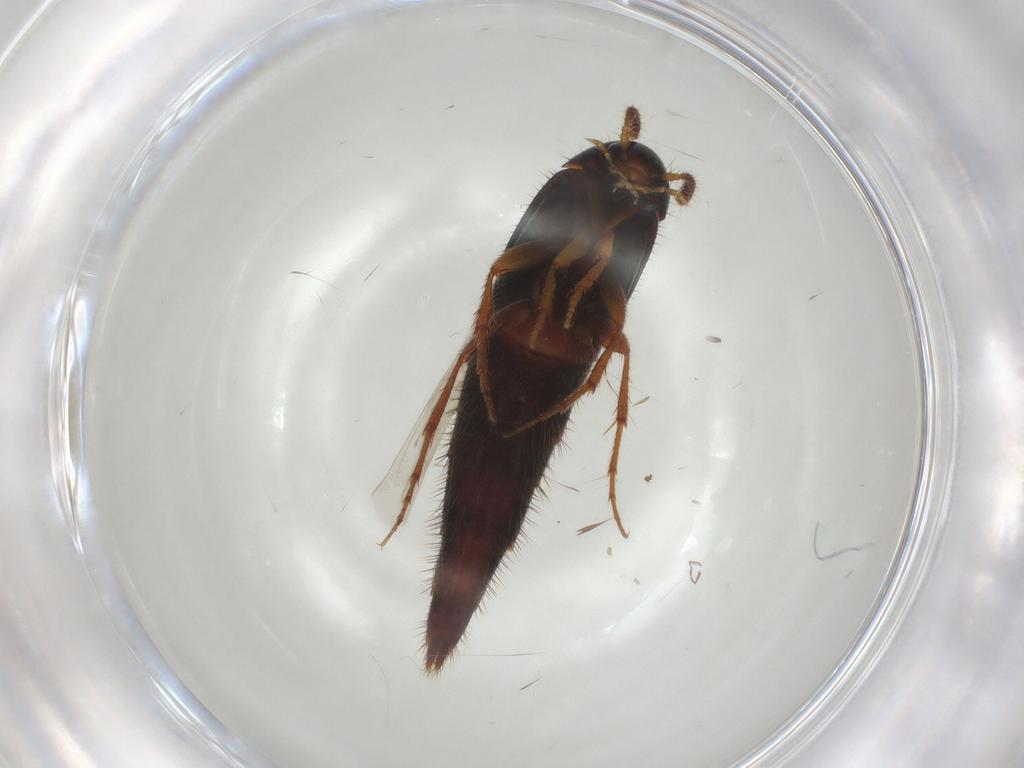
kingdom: Animalia
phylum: Arthropoda
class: Insecta
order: Coleoptera
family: Staphylinidae
